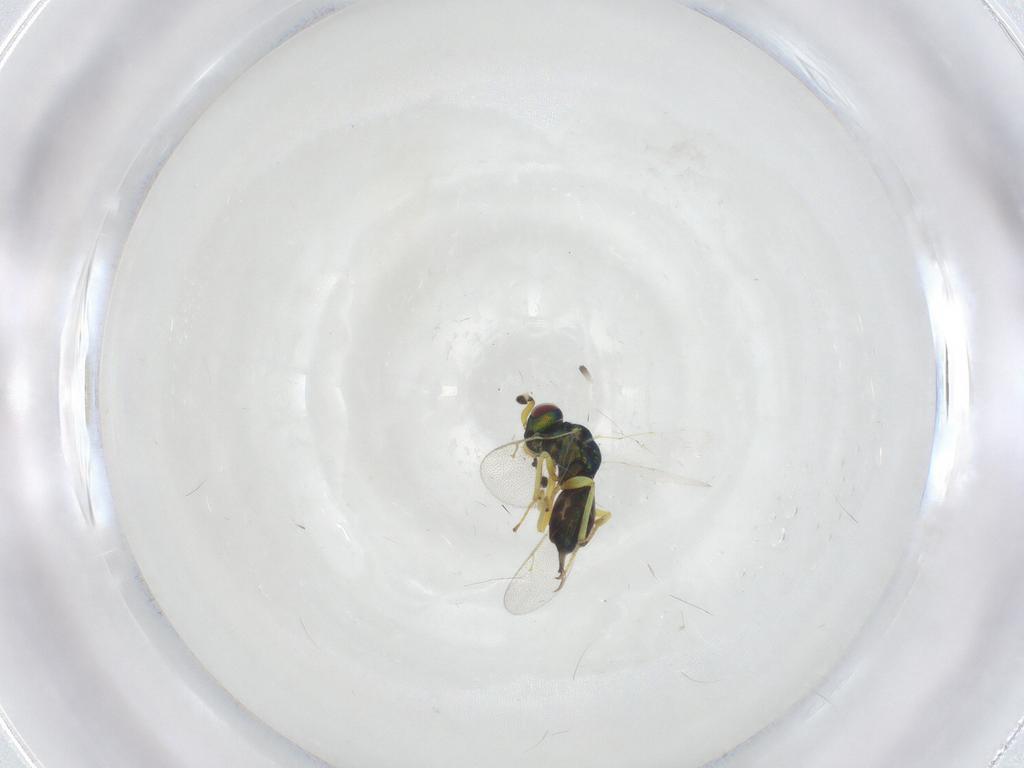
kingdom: Animalia
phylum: Arthropoda
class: Insecta
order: Hymenoptera
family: Pteromalidae
